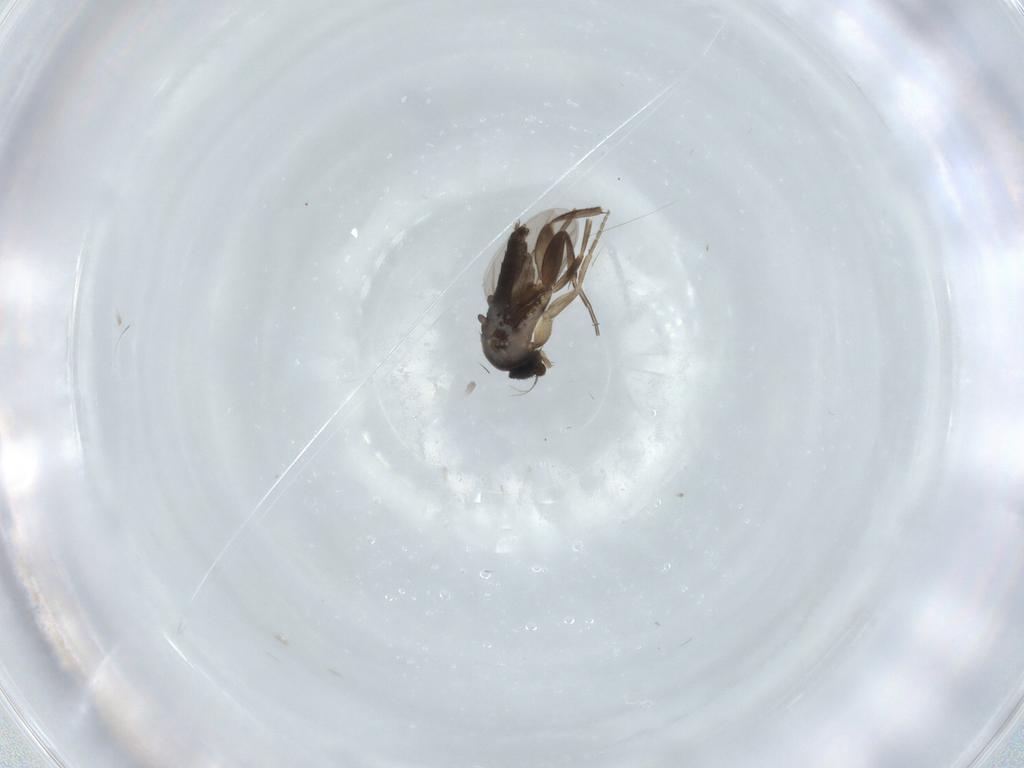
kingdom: Animalia
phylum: Arthropoda
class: Insecta
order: Diptera
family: Phoridae
